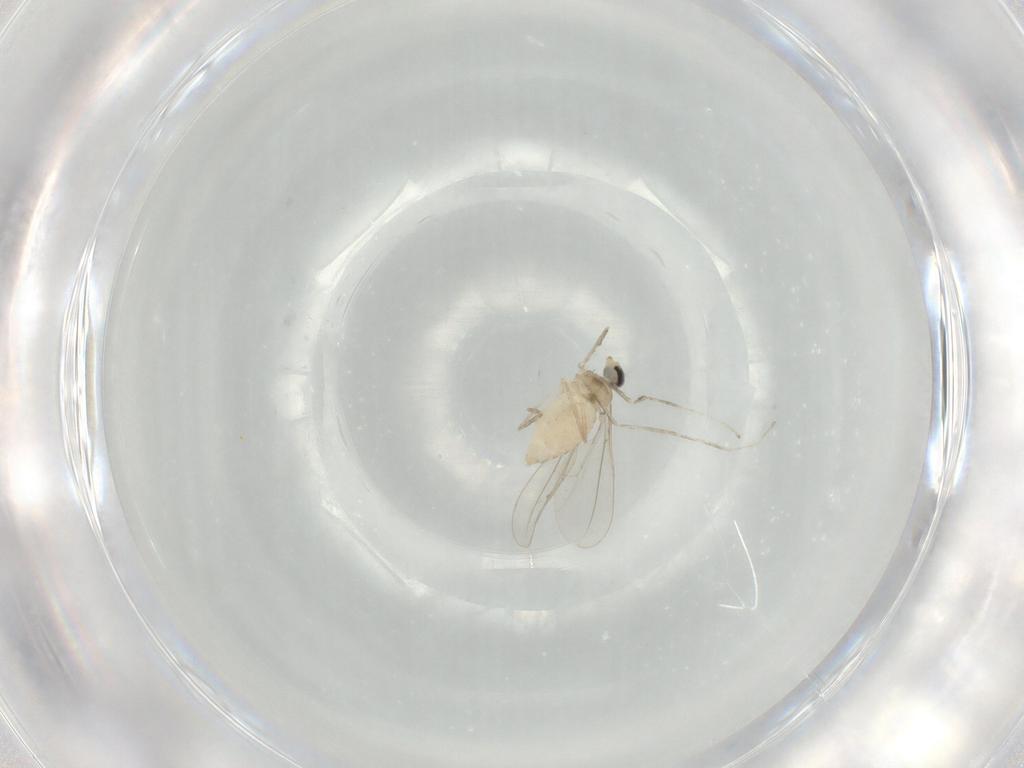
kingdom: Animalia
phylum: Arthropoda
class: Insecta
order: Diptera
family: Cecidomyiidae
